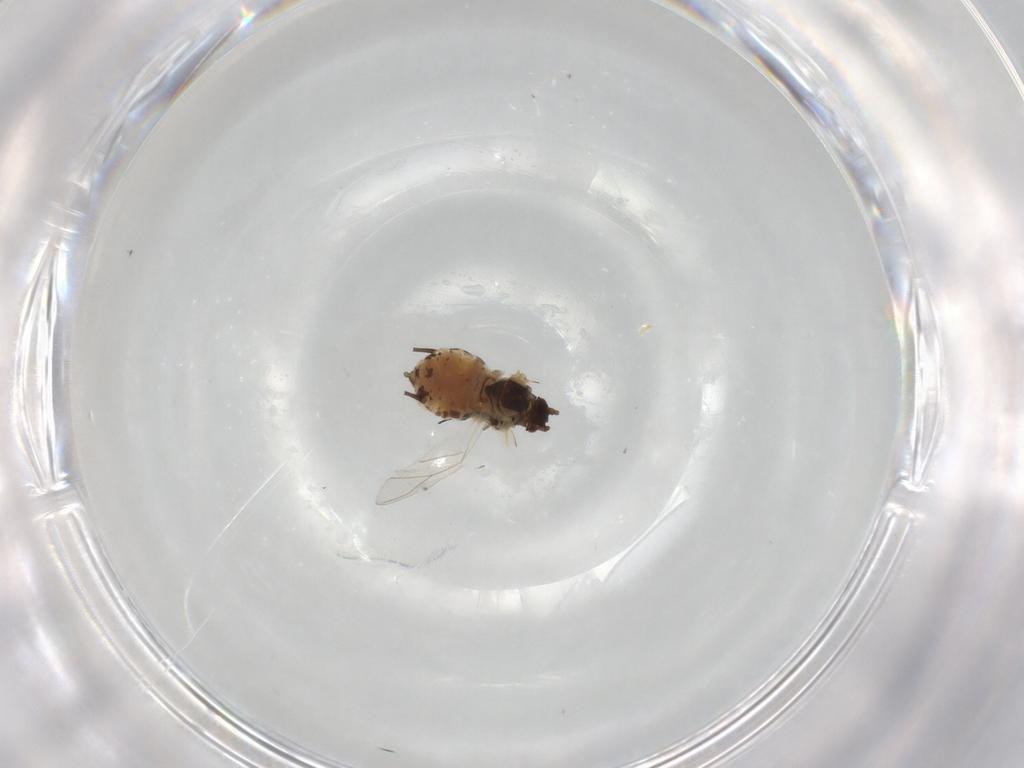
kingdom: Animalia
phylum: Arthropoda
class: Insecta
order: Hemiptera
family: Aphididae
